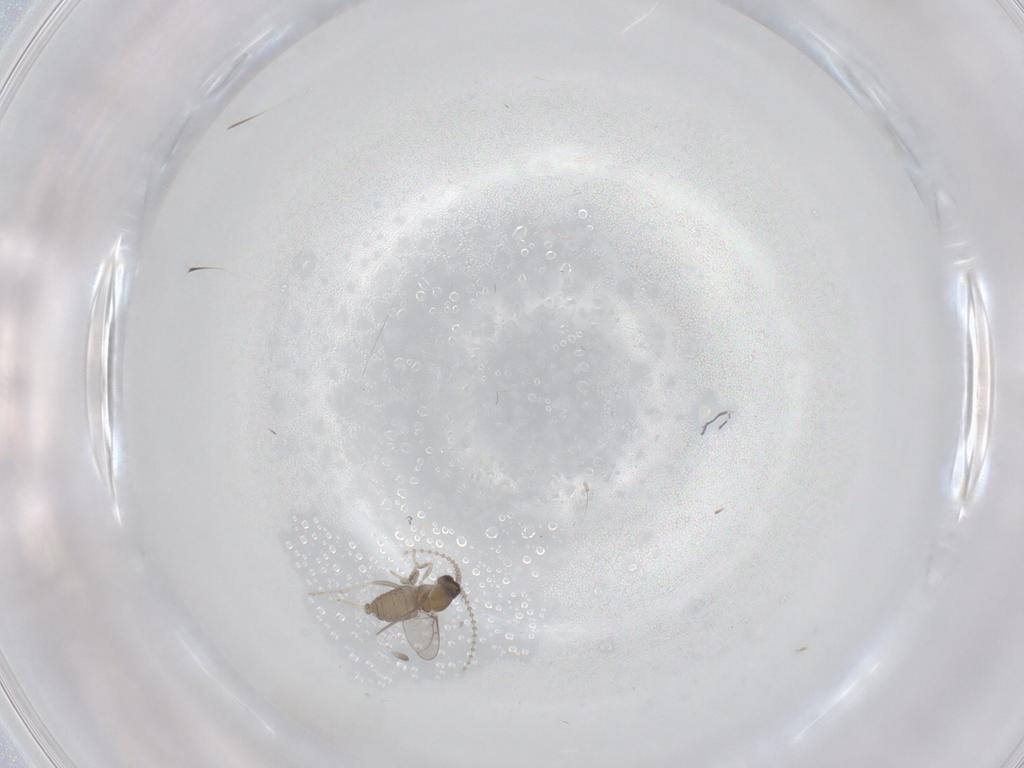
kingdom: Animalia
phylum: Arthropoda
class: Insecta
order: Diptera
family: Cecidomyiidae
